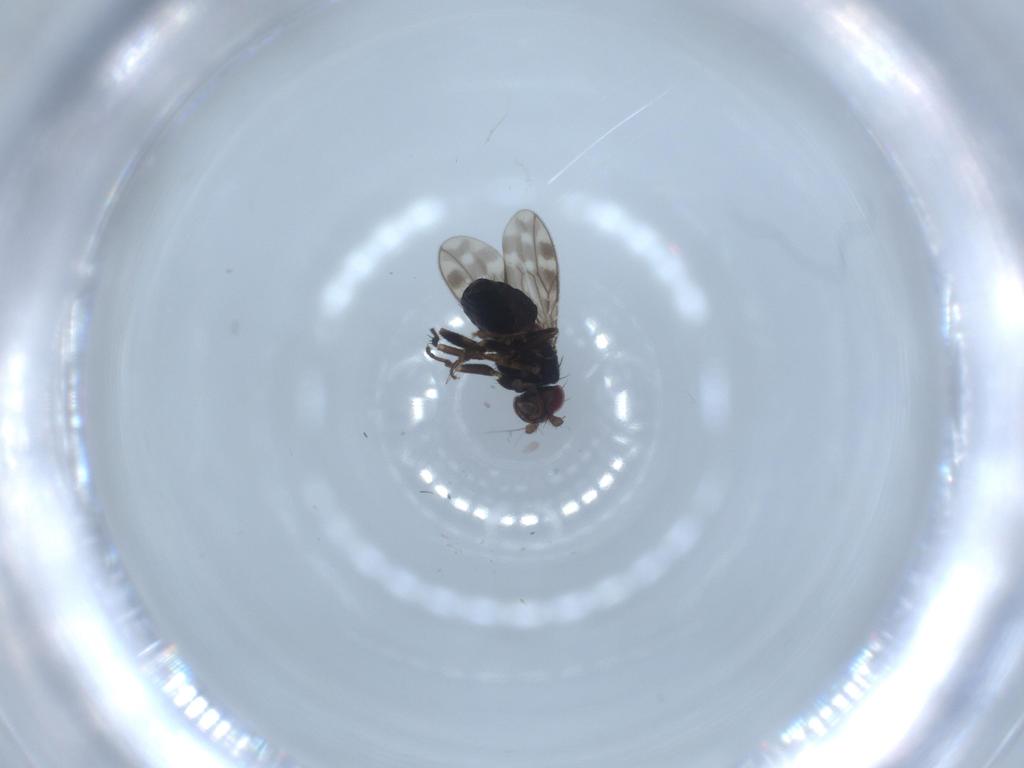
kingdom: Animalia
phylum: Arthropoda
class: Insecta
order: Diptera
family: Sphaeroceridae
